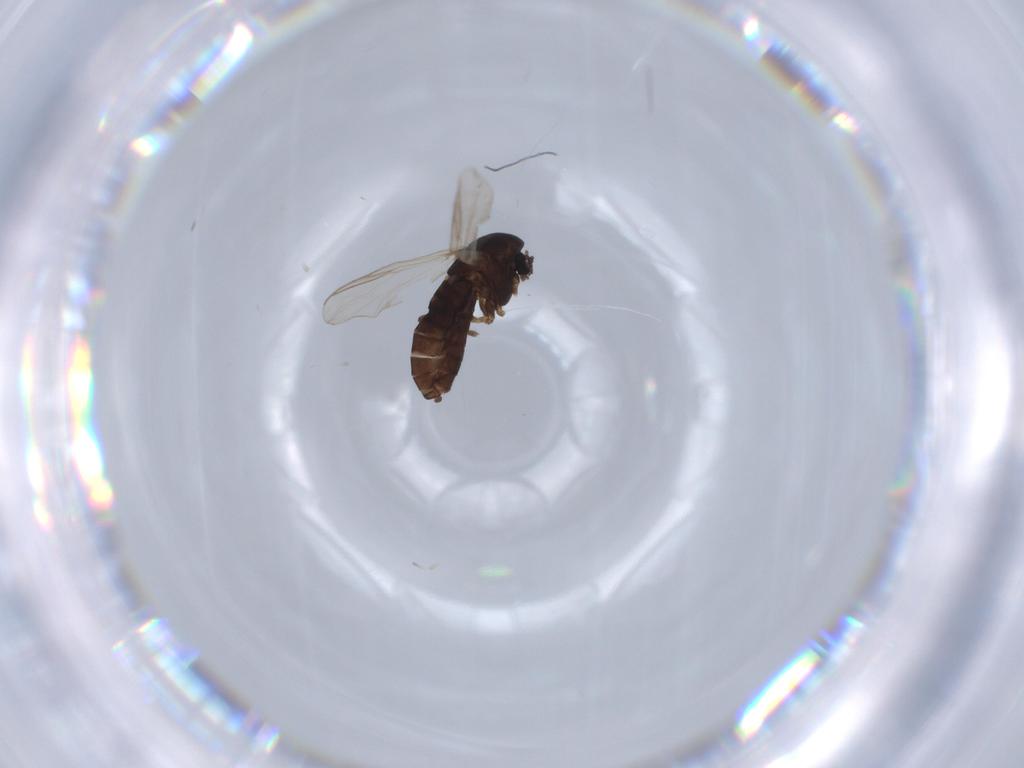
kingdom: Animalia
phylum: Arthropoda
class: Insecta
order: Diptera
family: Chironomidae
